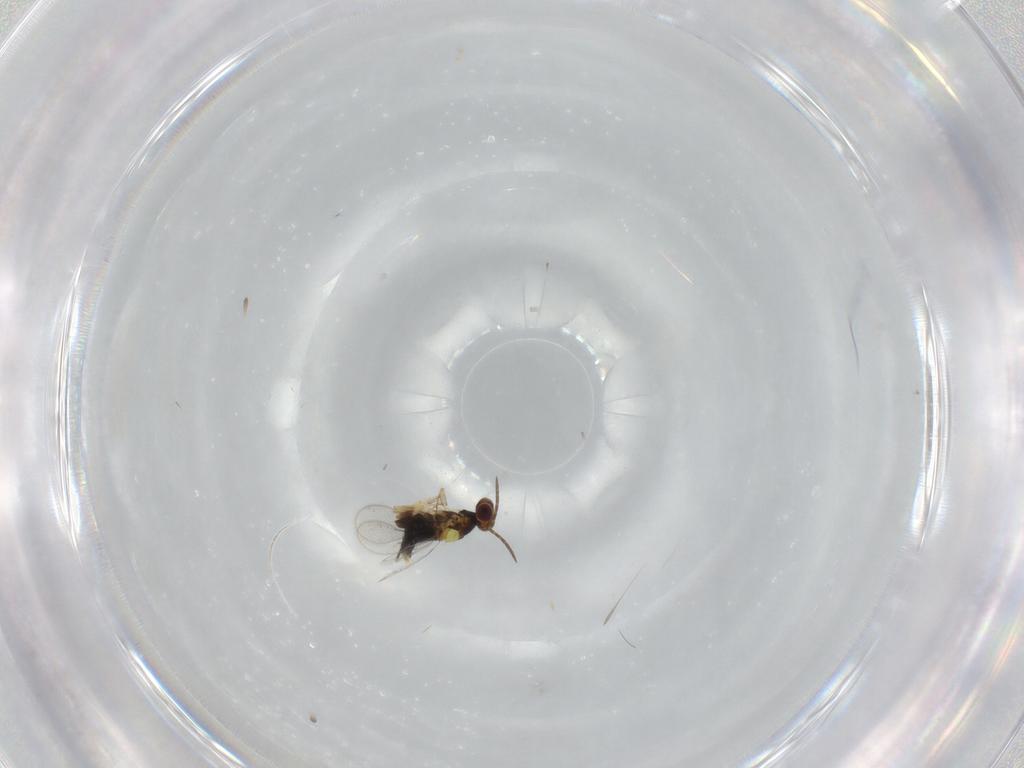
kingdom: Animalia
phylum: Arthropoda
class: Insecta
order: Hymenoptera
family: Aphelinidae
